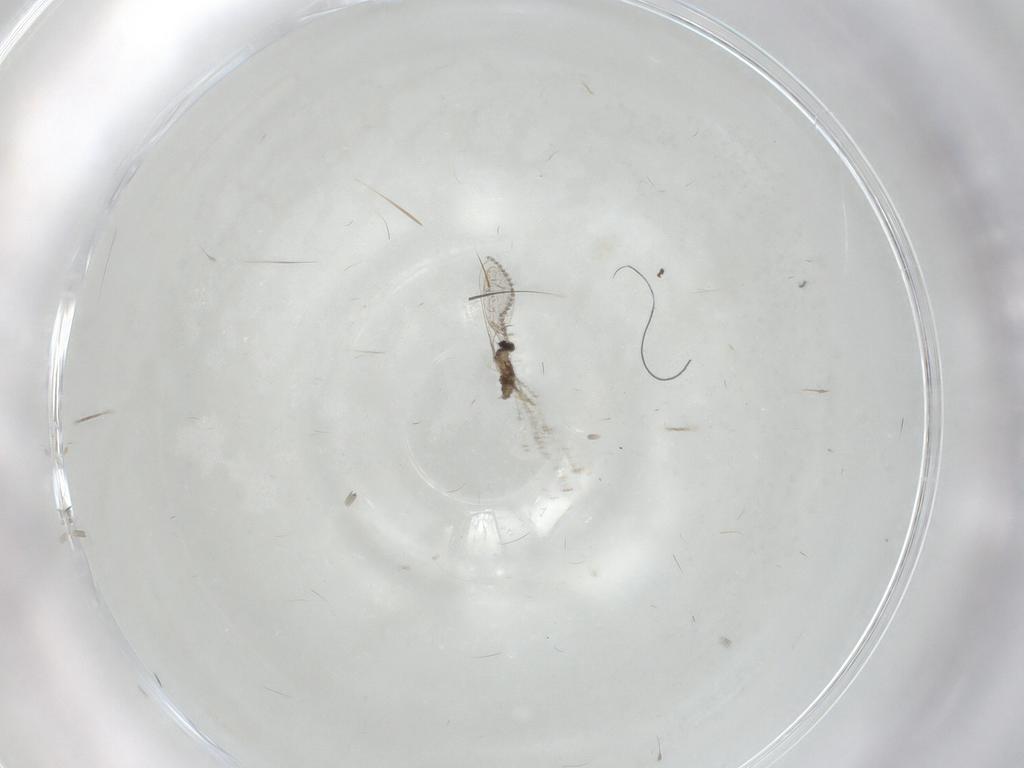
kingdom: Animalia
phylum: Arthropoda
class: Insecta
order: Diptera
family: Cecidomyiidae
